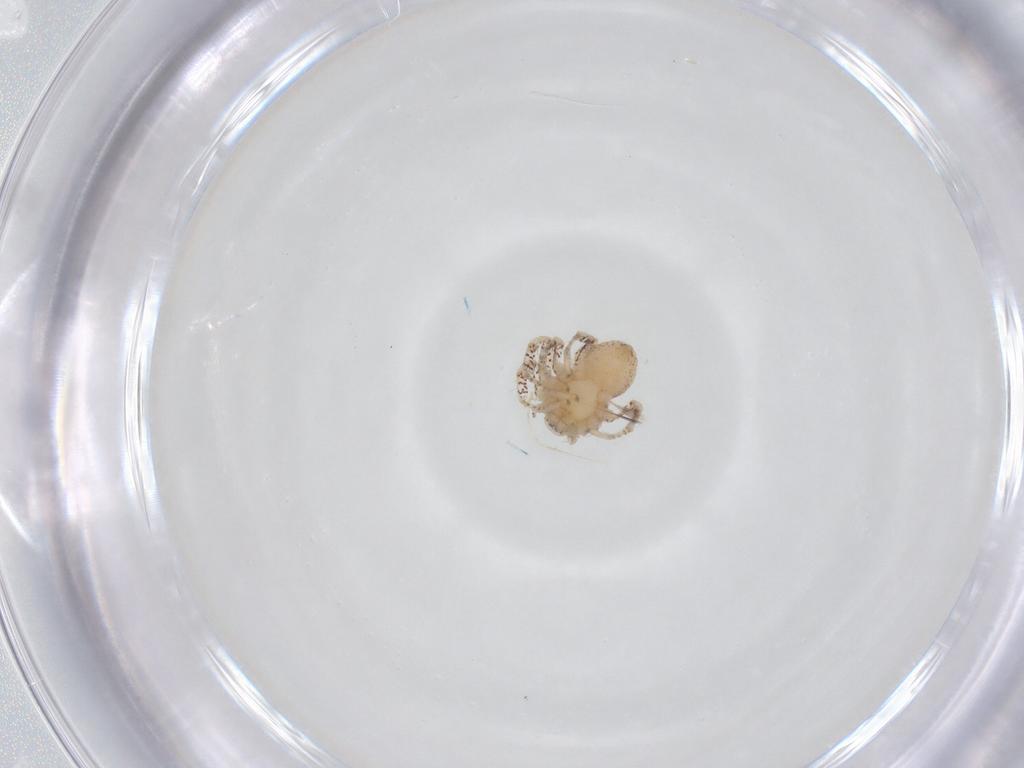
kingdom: Animalia
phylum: Arthropoda
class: Arachnida
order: Araneae
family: Philodromidae
